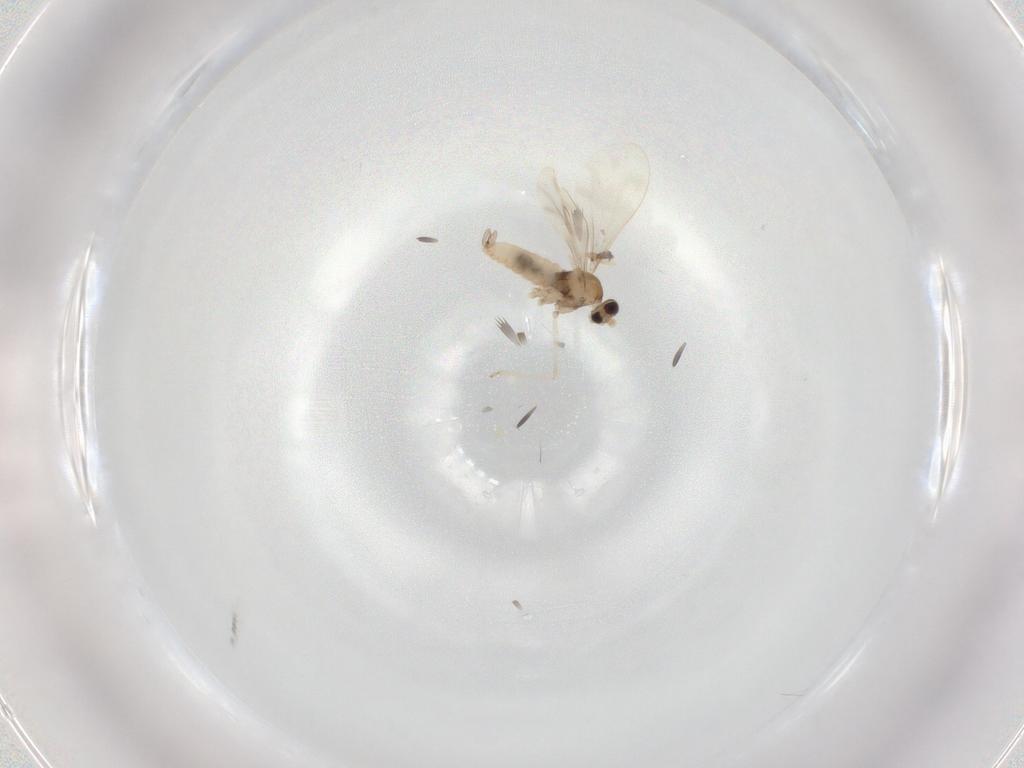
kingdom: Animalia
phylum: Arthropoda
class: Insecta
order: Diptera
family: Cecidomyiidae
